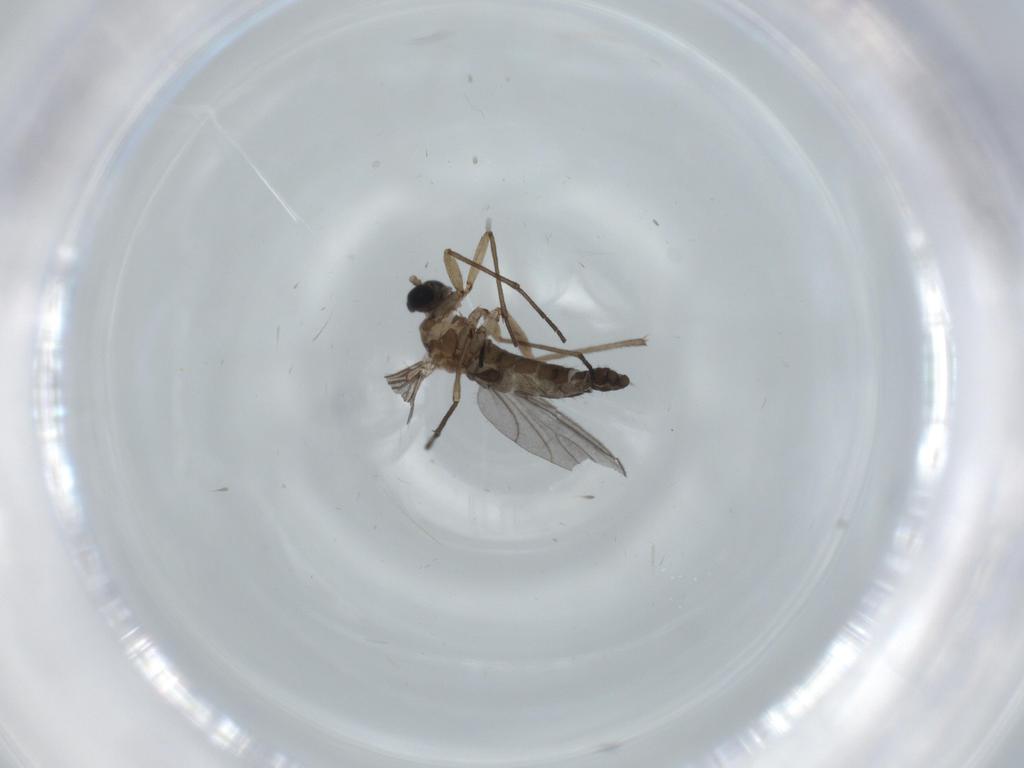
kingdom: Animalia
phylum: Arthropoda
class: Insecta
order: Diptera
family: Sciaridae
